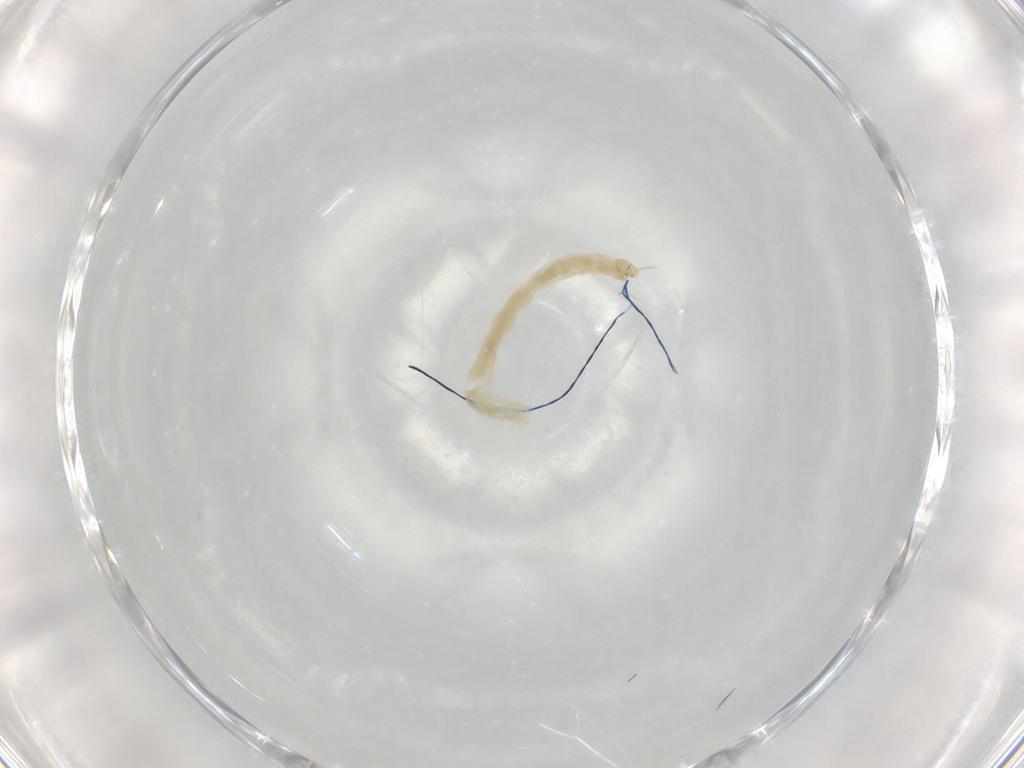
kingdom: Animalia
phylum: Arthropoda
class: Insecta
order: Diptera
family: Chironomidae
